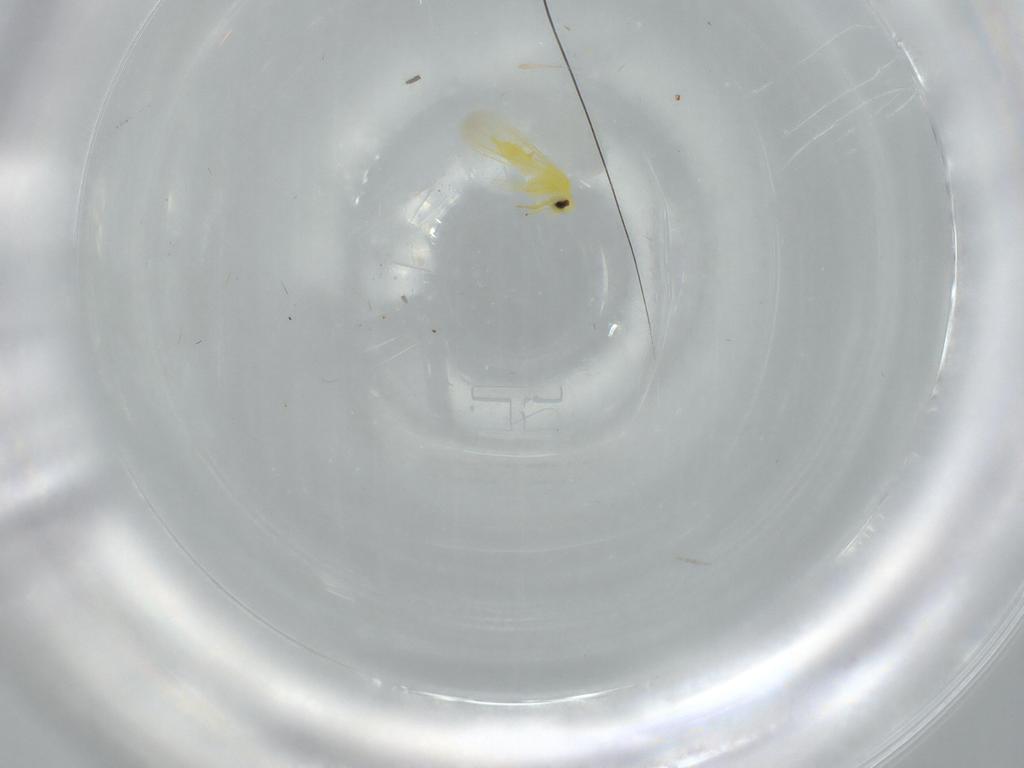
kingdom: Animalia
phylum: Arthropoda
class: Insecta
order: Hemiptera
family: Aleyrodidae
